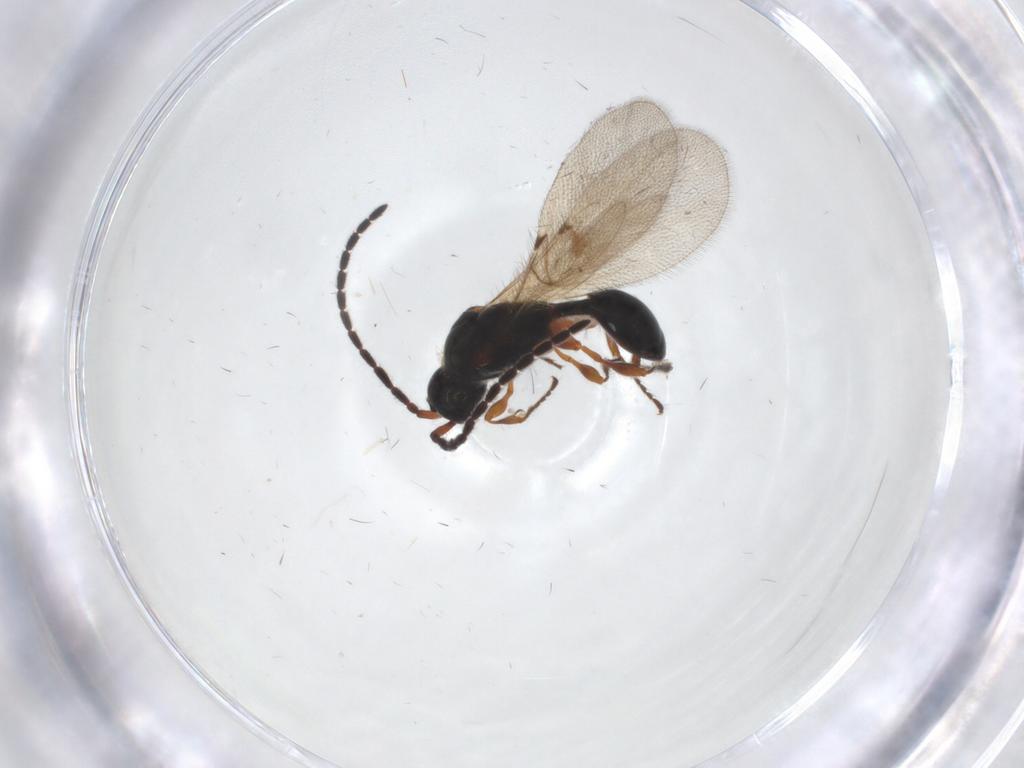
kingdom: Animalia
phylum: Arthropoda
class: Insecta
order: Hymenoptera
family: Diapriidae
